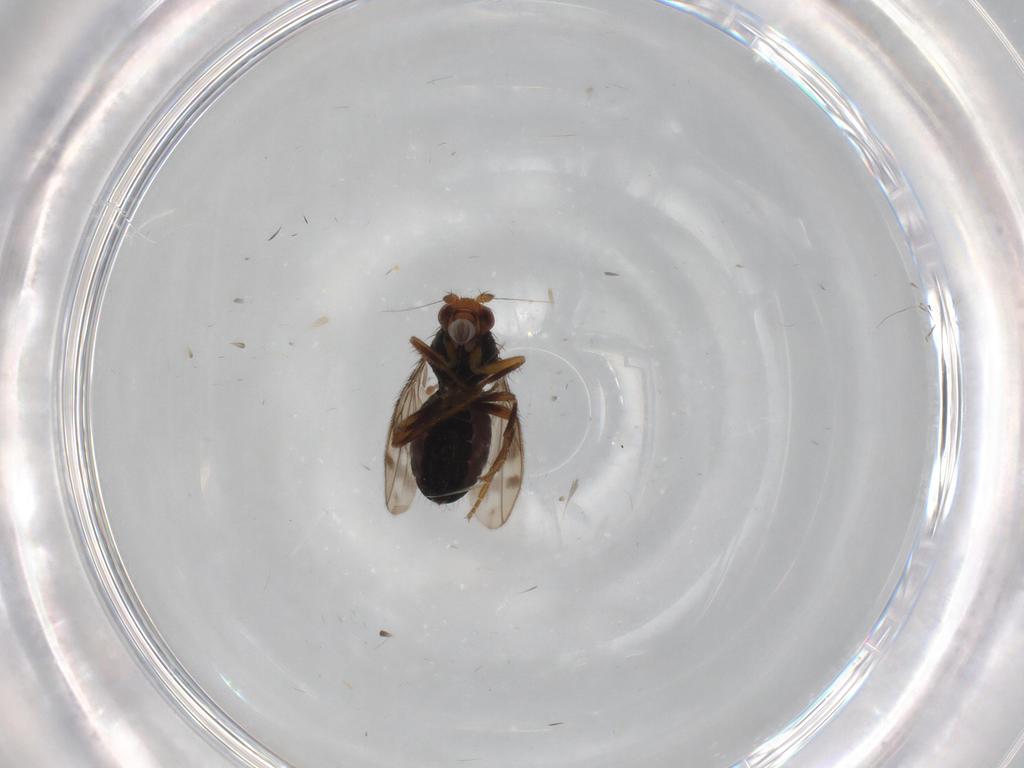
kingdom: Animalia
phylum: Arthropoda
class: Insecta
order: Diptera
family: Sphaeroceridae
